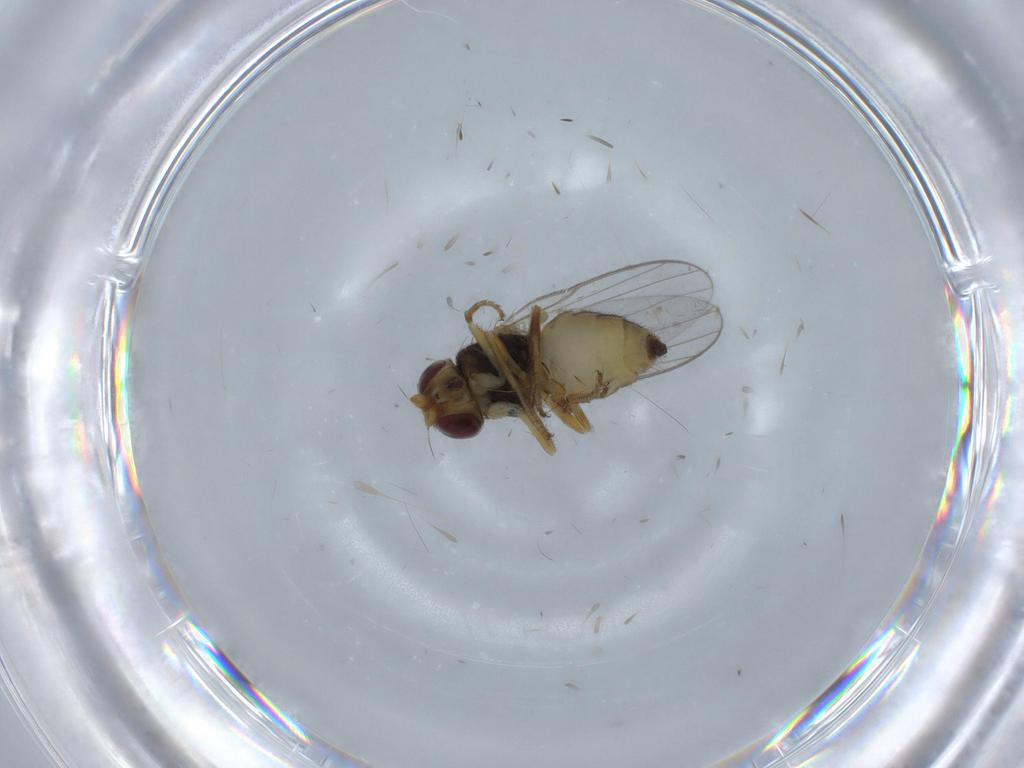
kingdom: Animalia
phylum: Arthropoda
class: Insecta
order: Diptera
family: Chloropidae
